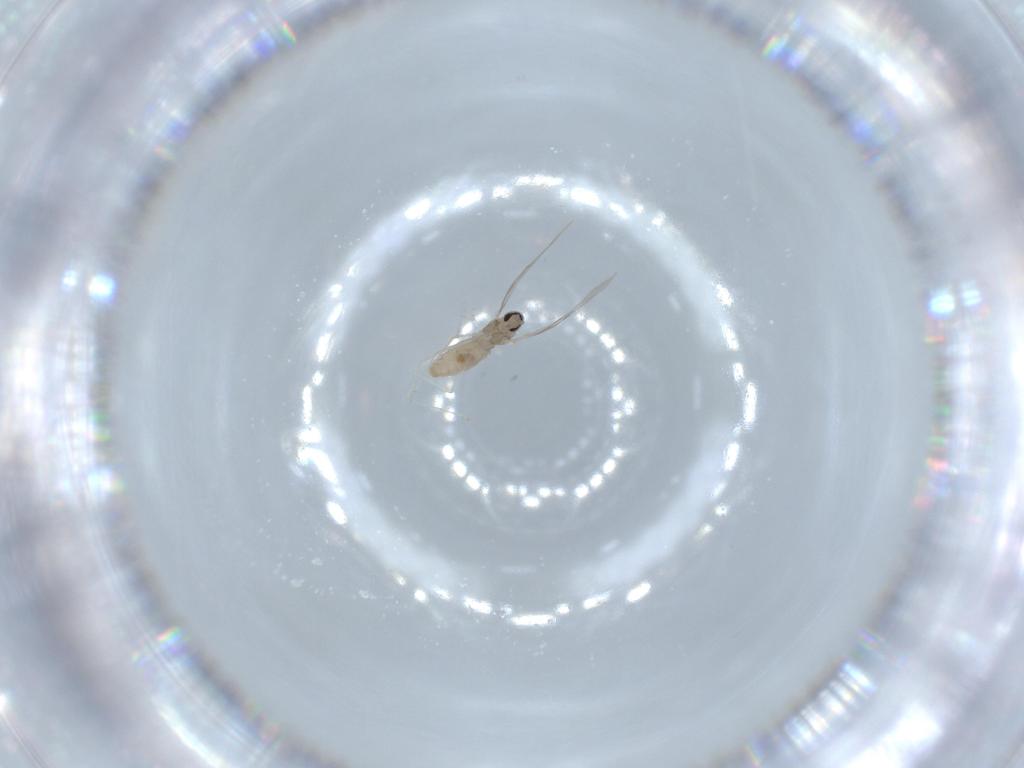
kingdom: Animalia
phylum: Arthropoda
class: Insecta
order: Diptera
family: Cecidomyiidae
